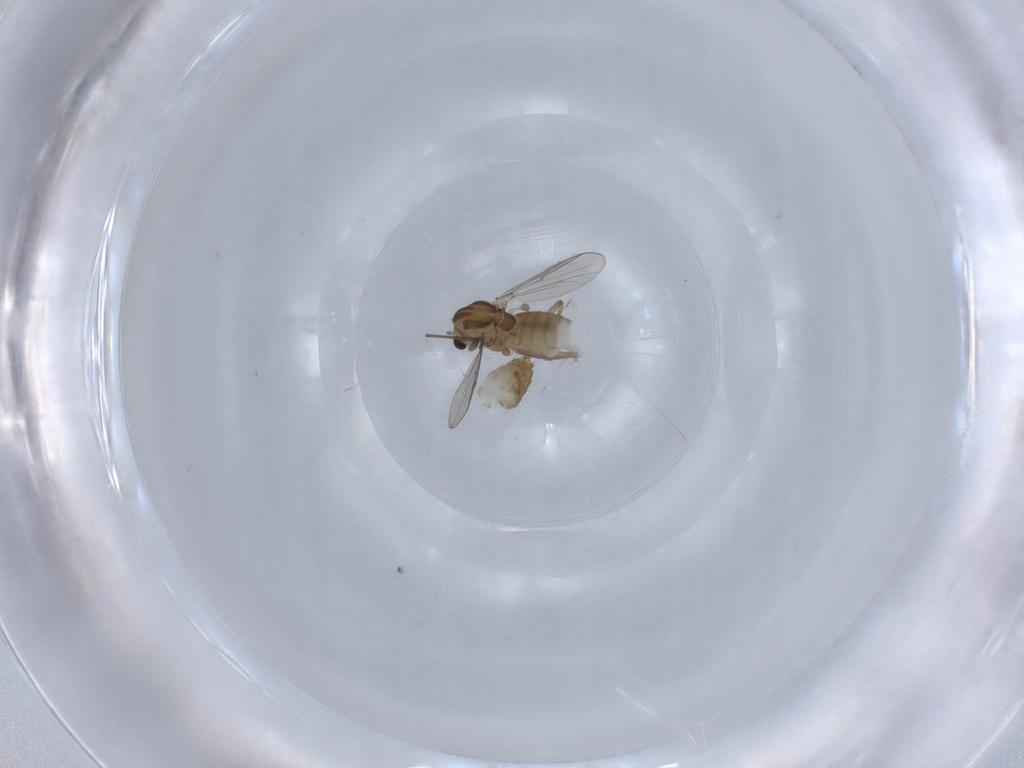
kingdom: Animalia
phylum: Arthropoda
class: Insecta
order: Diptera
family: Chironomidae
